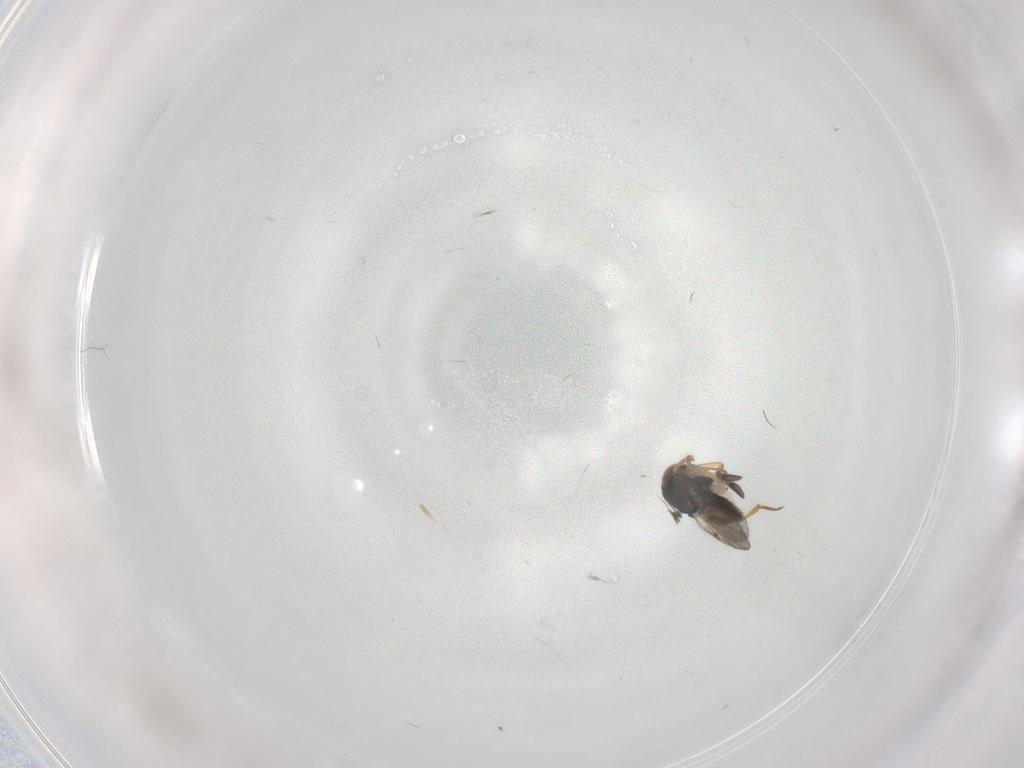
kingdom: Animalia
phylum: Arthropoda
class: Insecta
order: Hymenoptera
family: Encyrtidae
